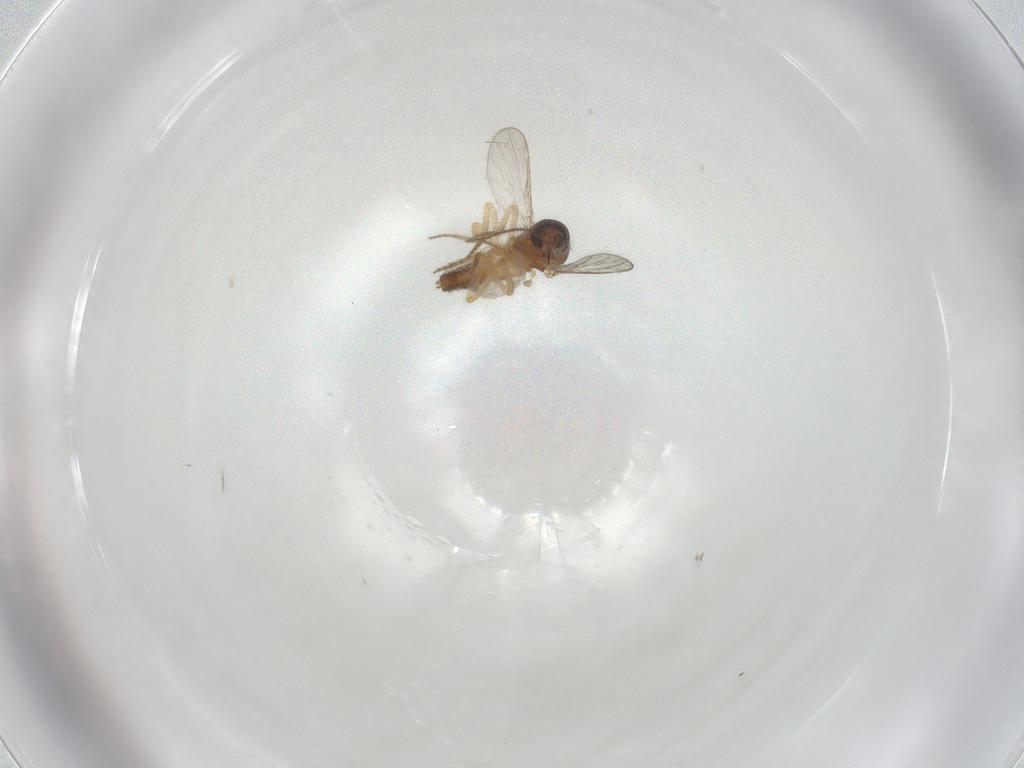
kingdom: Animalia
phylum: Arthropoda
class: Insecta
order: Diptera
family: Ceratopogonidae
